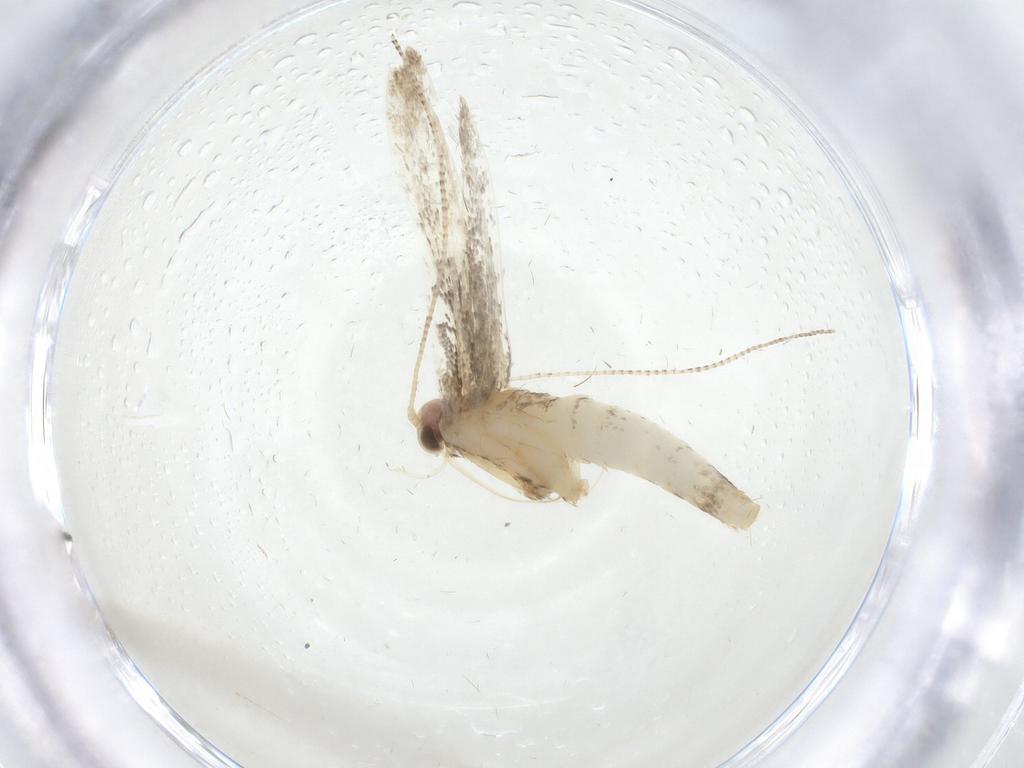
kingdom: Animalia
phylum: Arthropoda
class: Insecta
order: Lepidoptera
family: Gracillariidae
